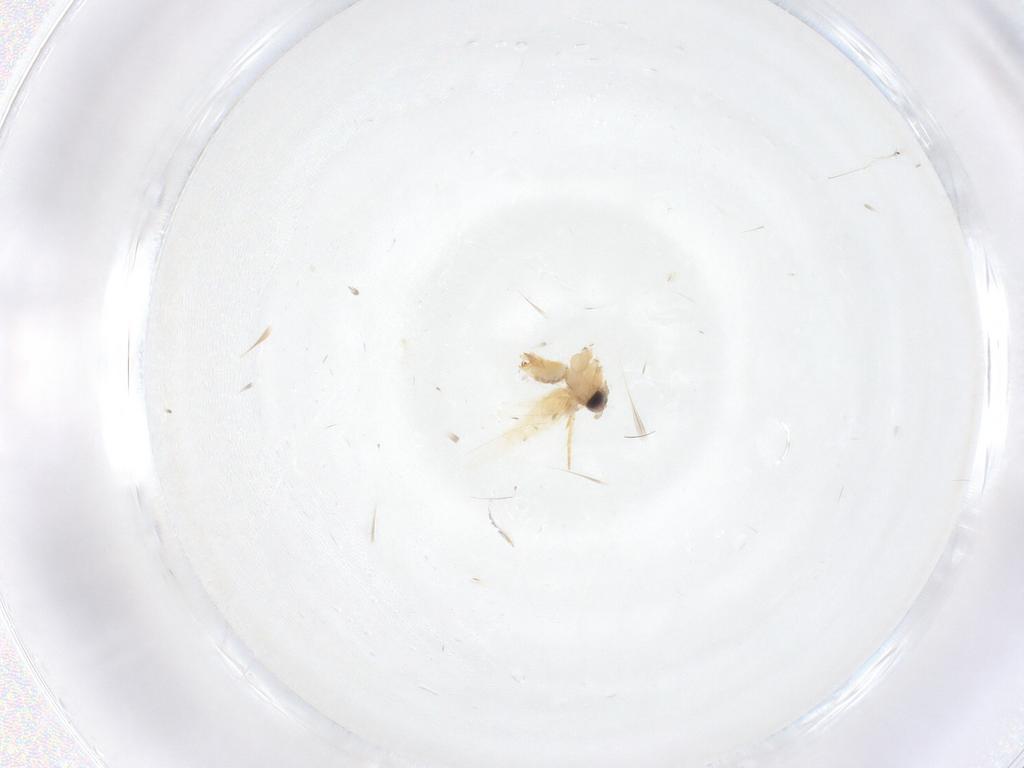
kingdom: Animalia
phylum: Arthropoda
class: Insecta
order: Lepidoptera
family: Crambidae
